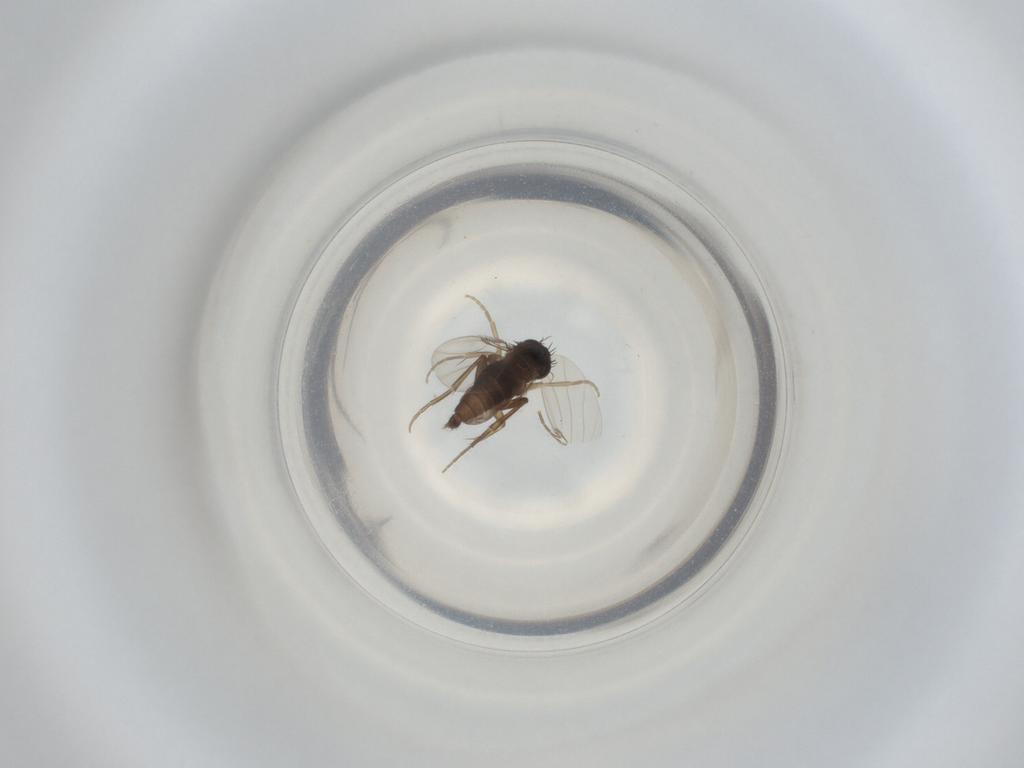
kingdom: Animalia
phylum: Arthropoda
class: Insecta
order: Diptera
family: Phoridae
